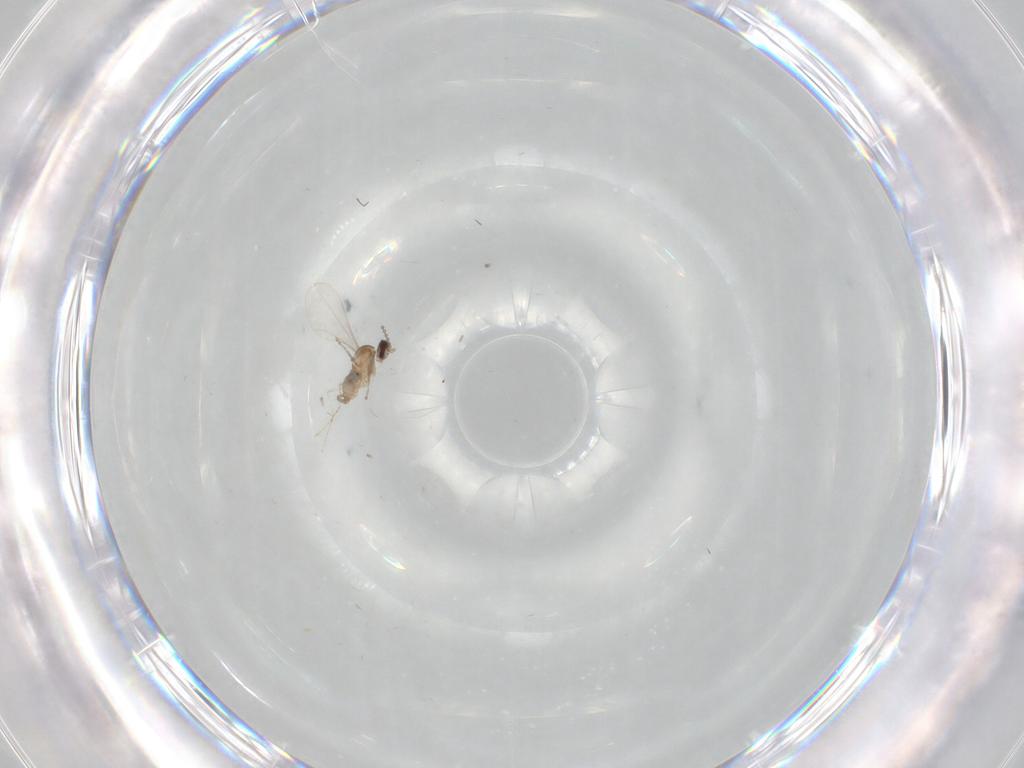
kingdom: Animalia
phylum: Arthropoda
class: Insecta
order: Diptera
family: Cecidomyiidae
